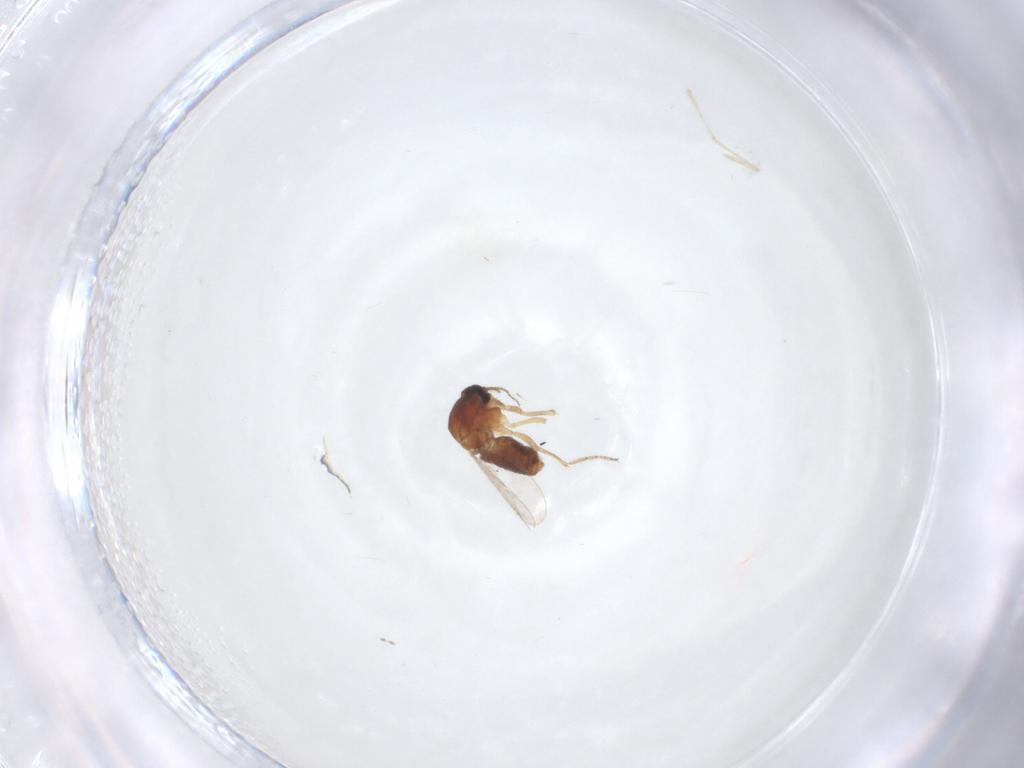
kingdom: Animalia
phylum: Arthropoda
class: Insecta
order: Diptera
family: Ceratopogonidae
